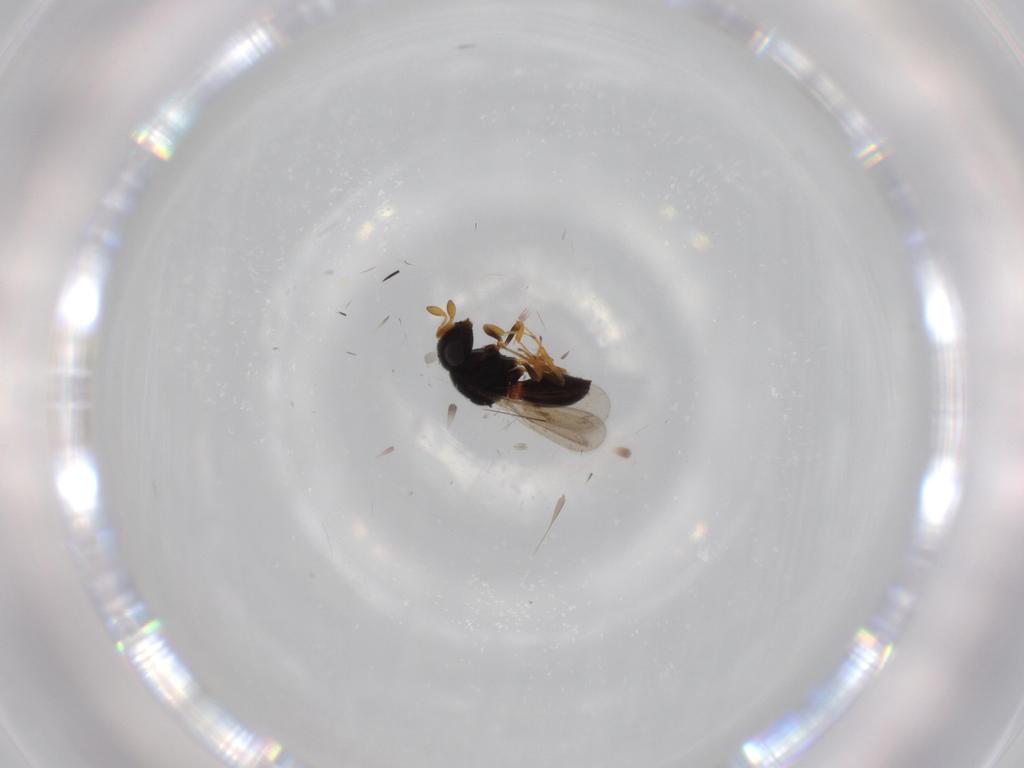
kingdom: Animalia
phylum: Arthropoda
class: Insecta
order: Hymenoptera
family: Scelionidae
